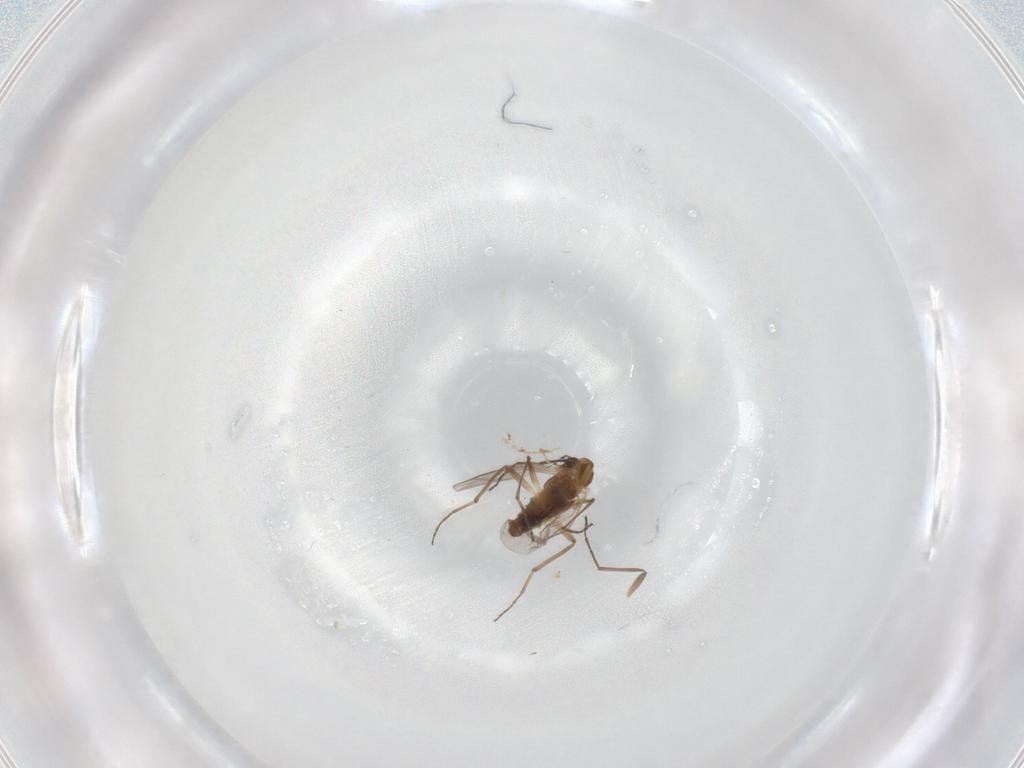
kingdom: Animalia
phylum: Arthropoda
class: Insecta
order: Diptera
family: Chironomidae
